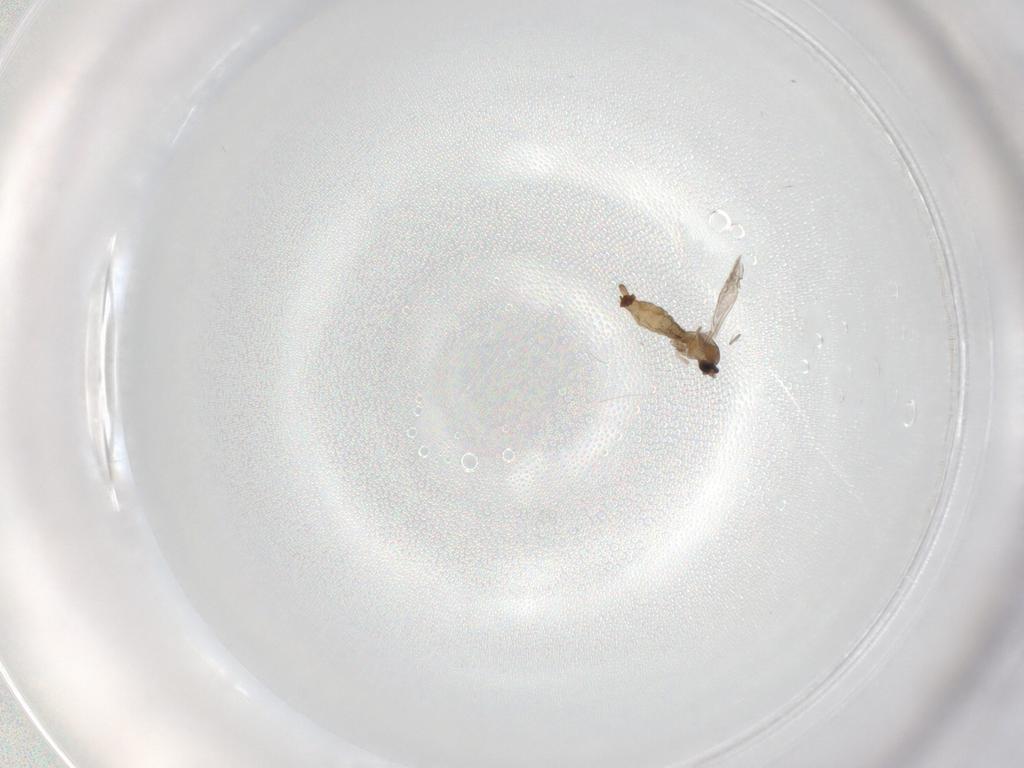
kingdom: Animalia
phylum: Arthropoda
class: Insecta
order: Diptera
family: Cecidomyiidae
